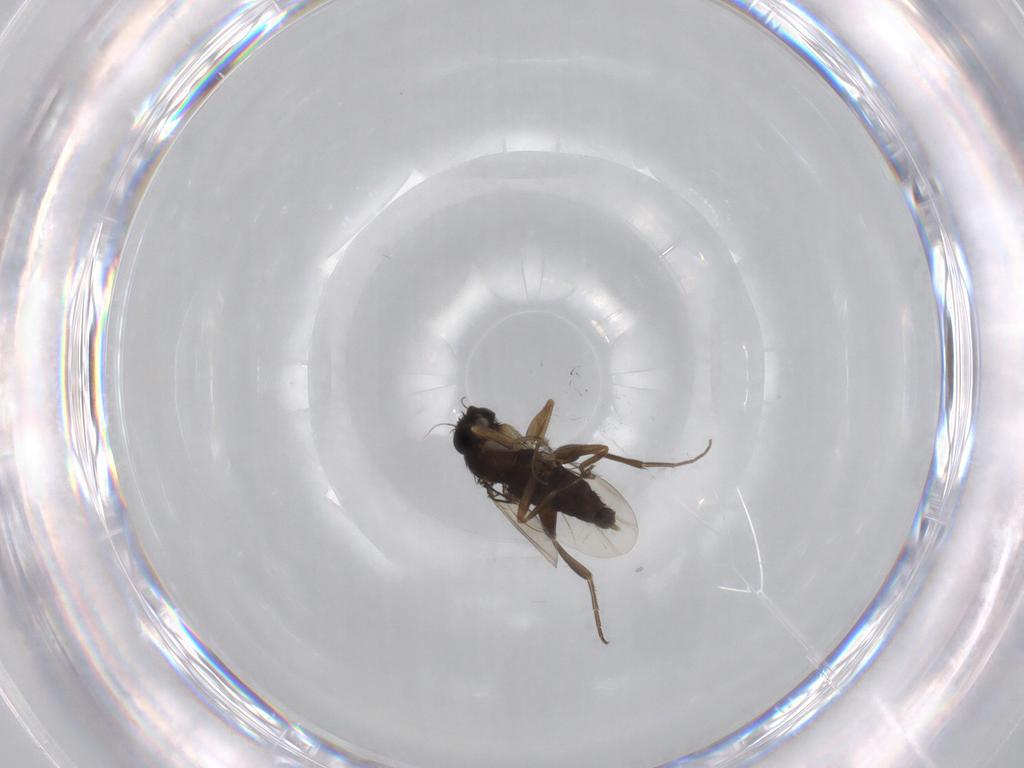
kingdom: Animalia
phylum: Arthropoda
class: Insecta
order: Diptera
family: Phoridae
